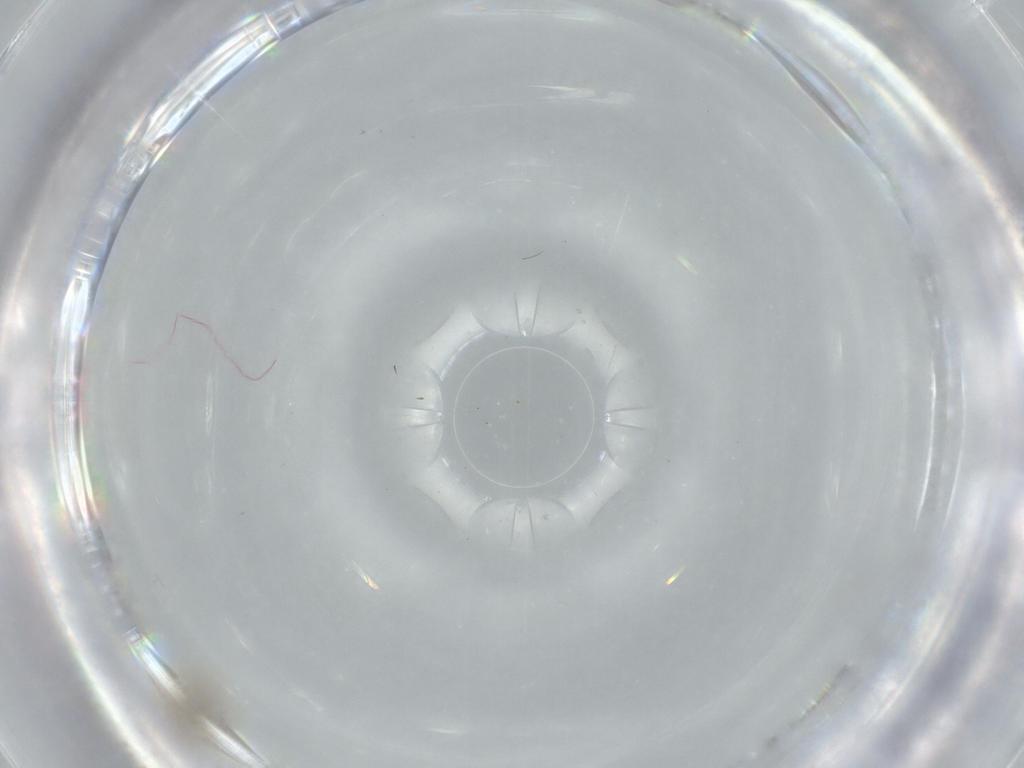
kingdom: Animalia
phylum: Arthropoda
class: Insecta
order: Hymenoptera
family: Signiphoridae
